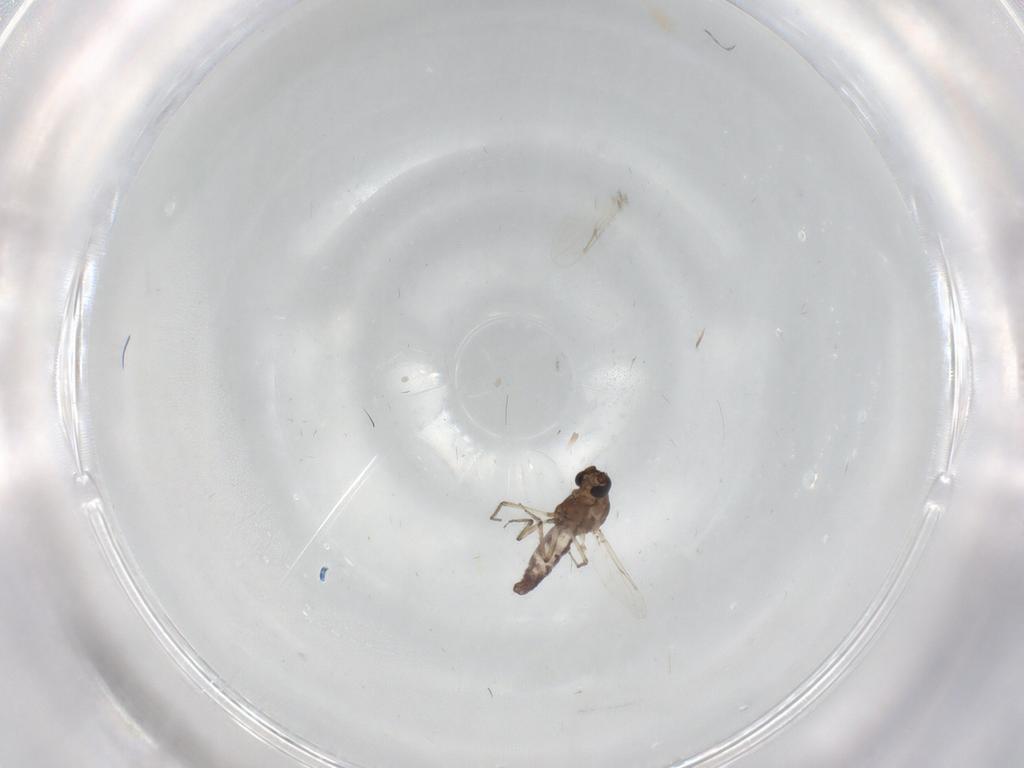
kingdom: Animalia
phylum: Arthropoda
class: Insecta
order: Diptera
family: Ceratopogonidae
